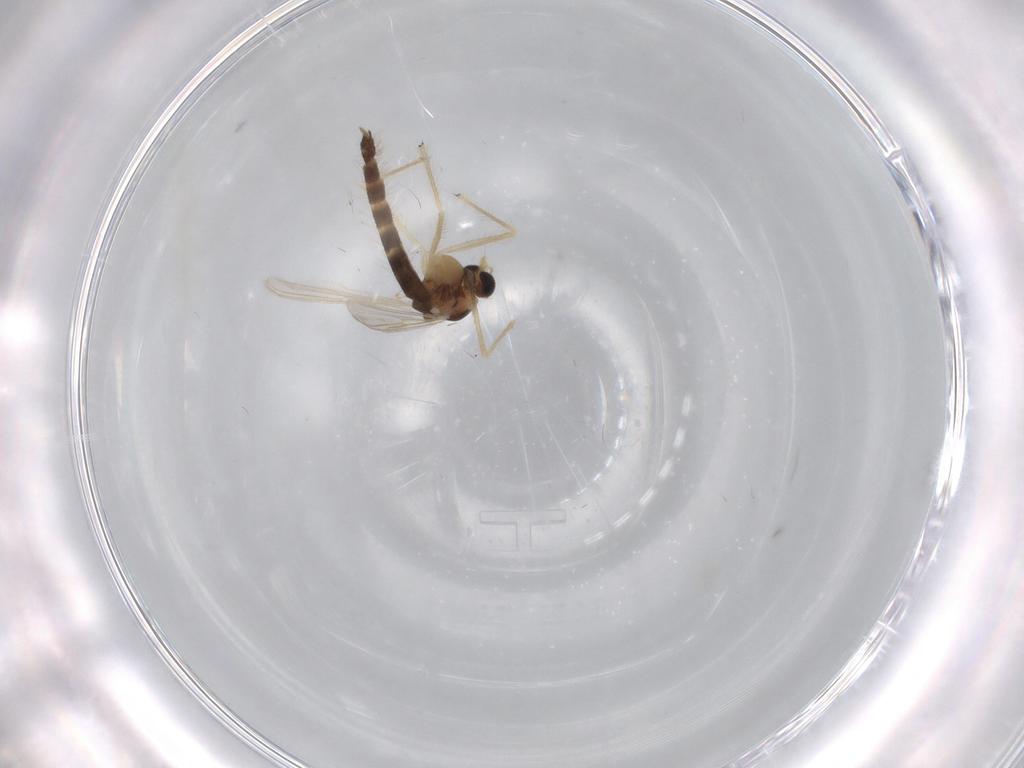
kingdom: Animalia
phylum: Arthropoda
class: Insecta
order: Diptera
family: Chironomidae
